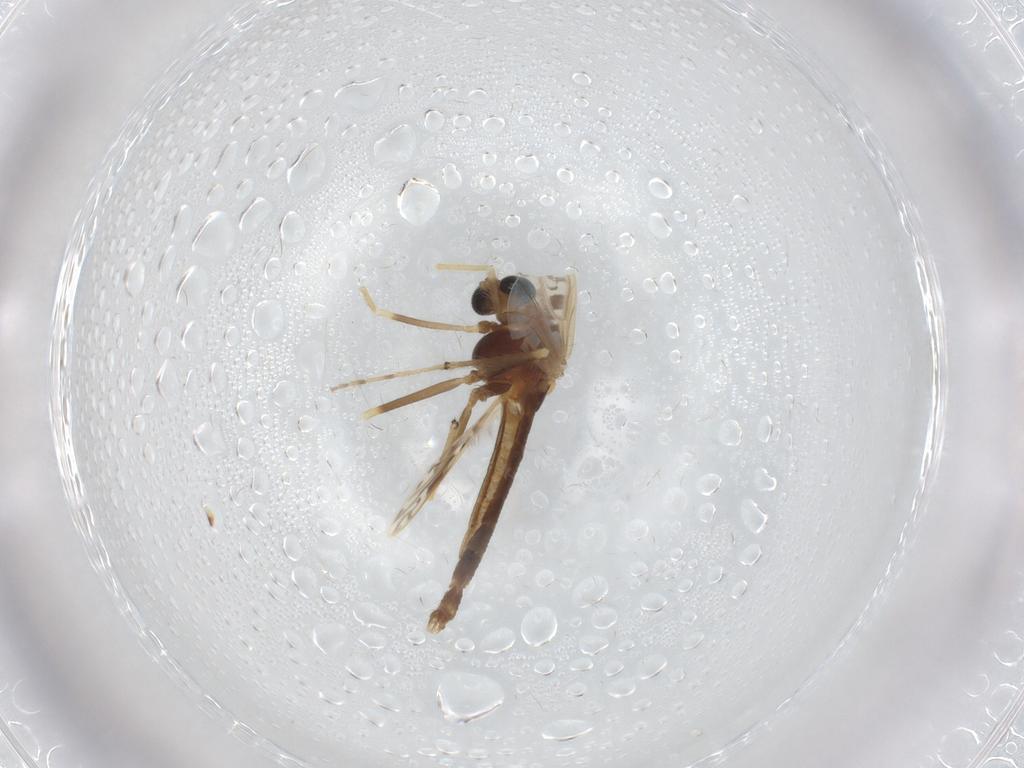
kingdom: Animalia
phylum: Arthropoda
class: Insecta
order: Diptera
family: Chironomidae
